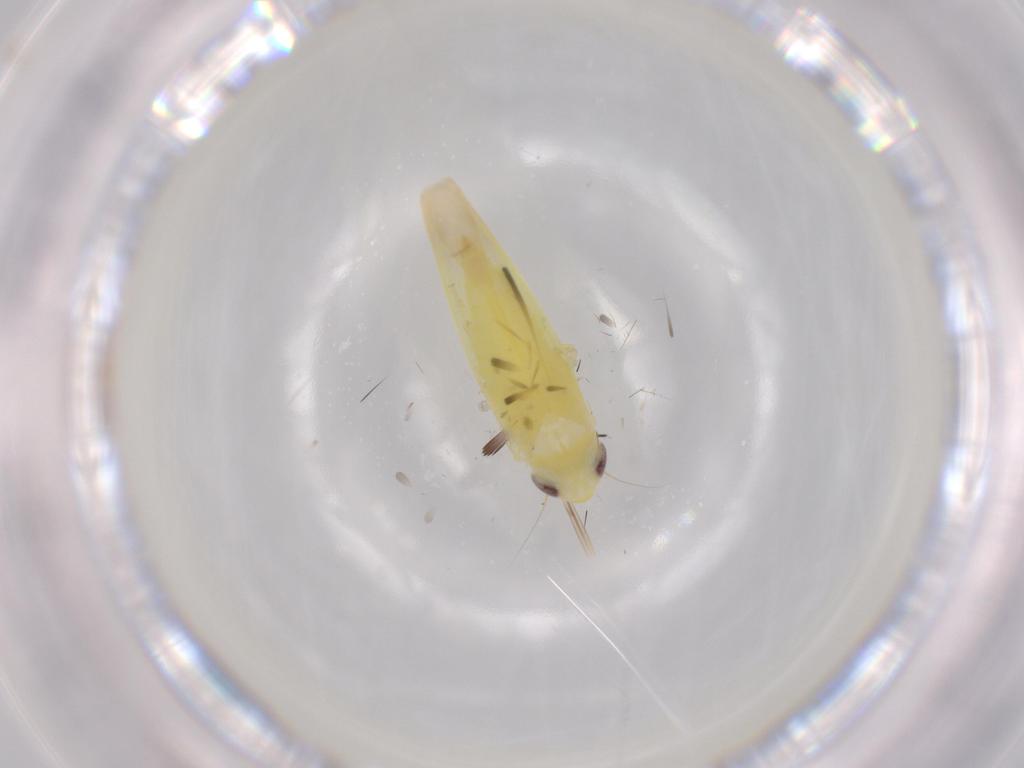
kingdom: Animalia
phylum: Arthropoda
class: Insecta
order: Hemiptera
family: Cicadellidae
